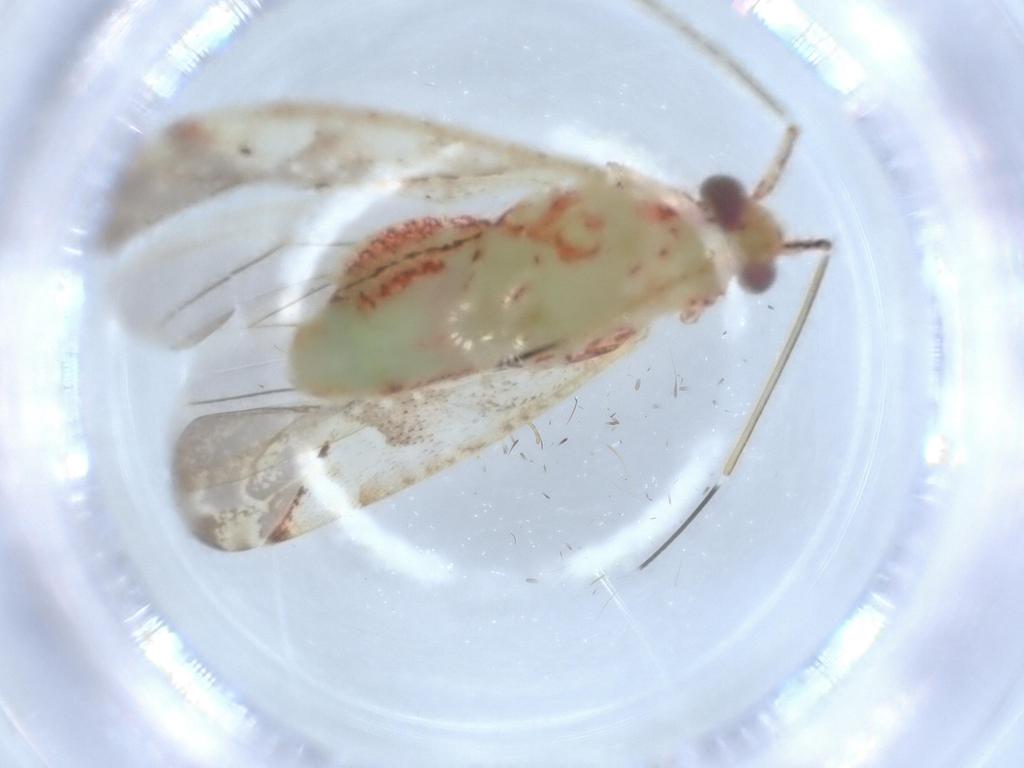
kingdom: Animalia
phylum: Arthropoda
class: Insecta
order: Hemiptera
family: Miridae
